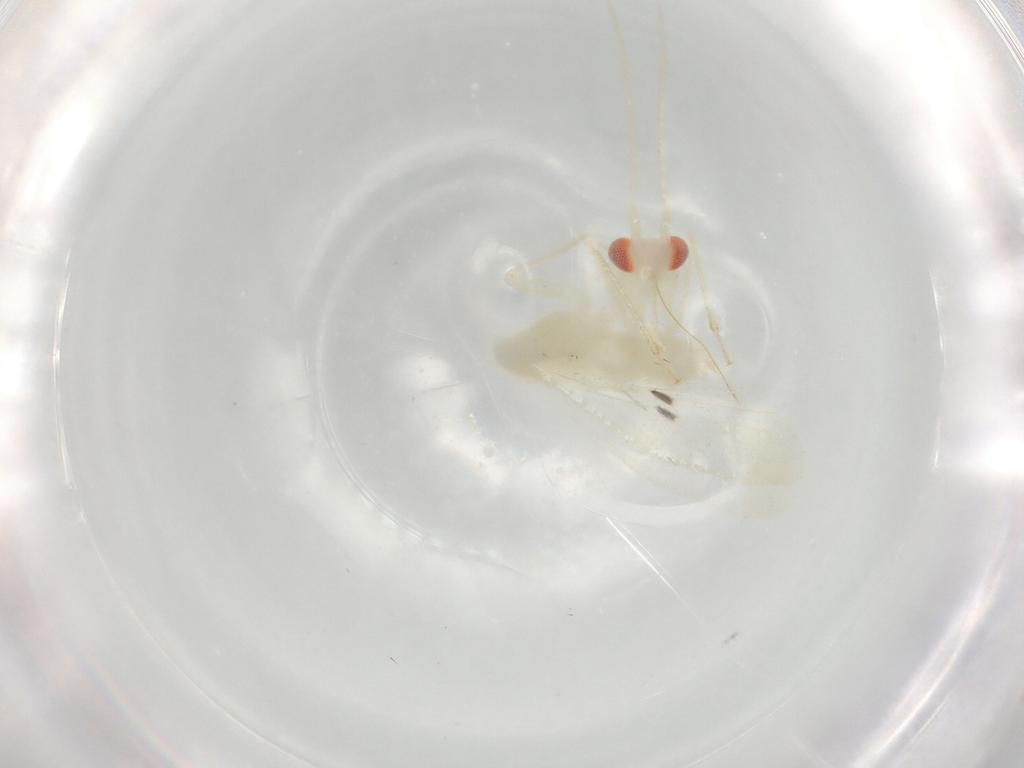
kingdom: Animalia
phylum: Arthropoda
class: Insecta
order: Hemiptera
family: Miridae
